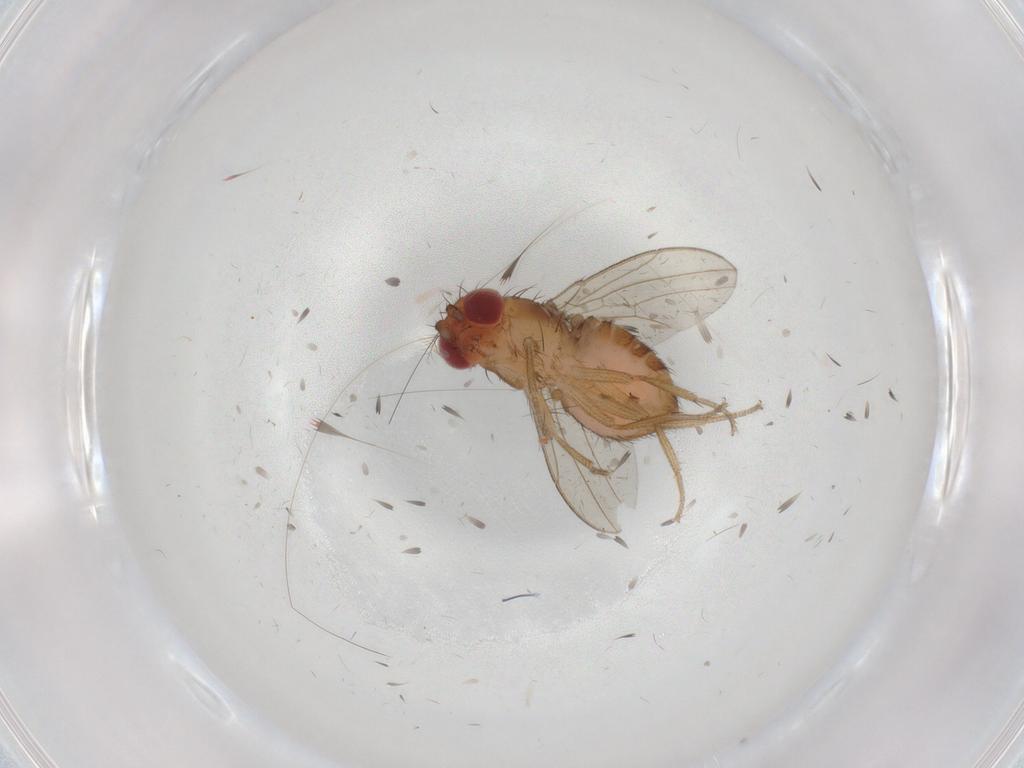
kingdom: Animalia
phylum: Arthropoda
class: Insecta
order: Diptera
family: Drosophilidae
